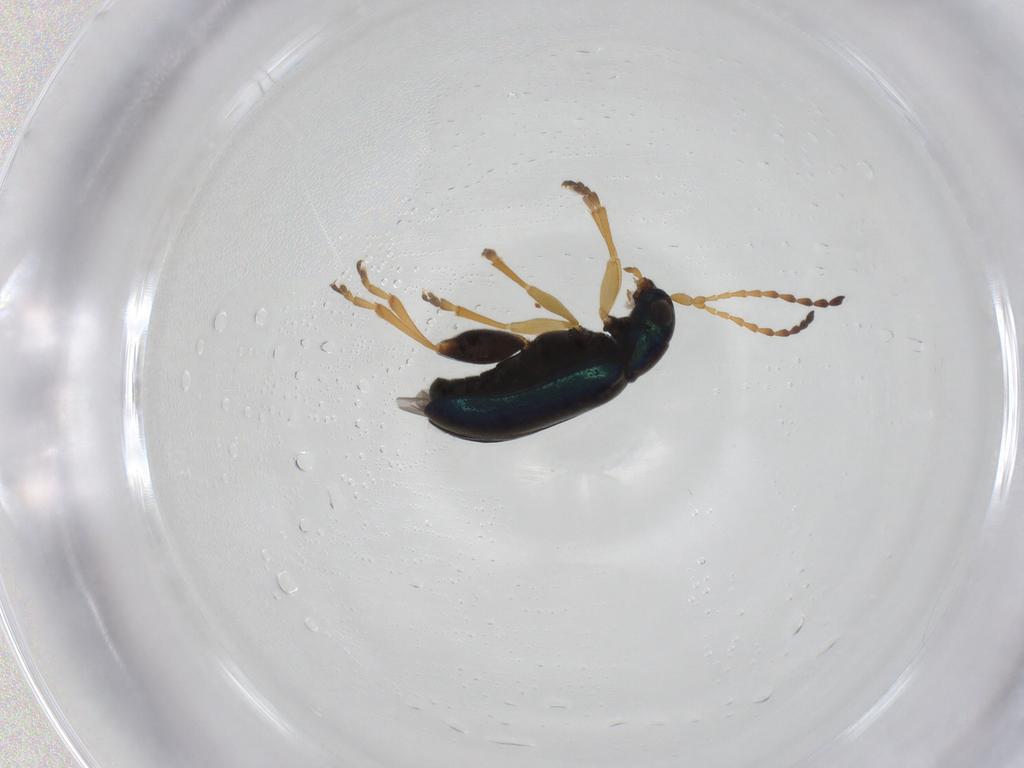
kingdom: Animalia
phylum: Arthropoda
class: Insecta
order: Coleoptera
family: Chrysomelidae
